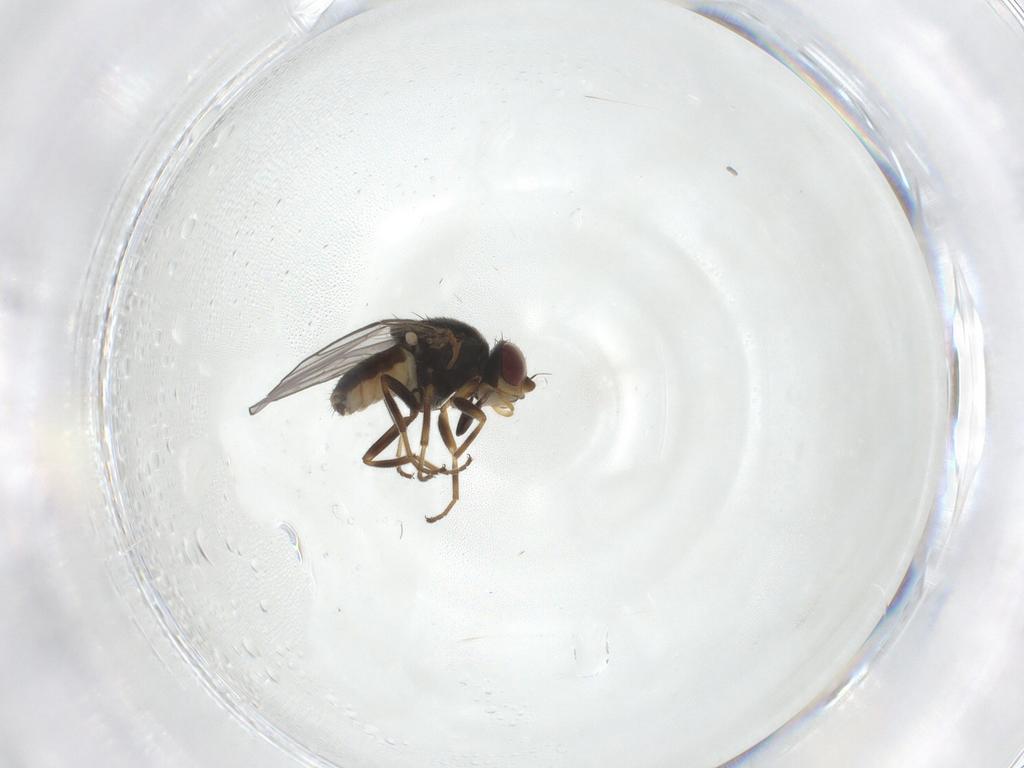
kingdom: Animalia
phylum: Arthropoda
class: Insecta
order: Diptera
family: Chloropidae
